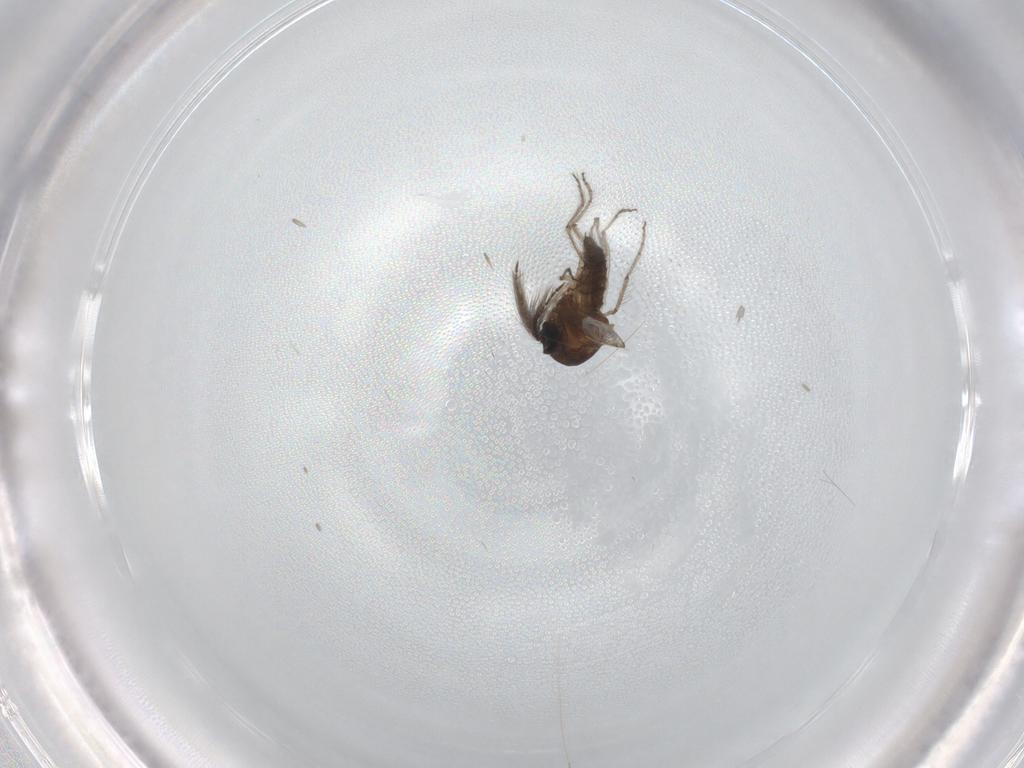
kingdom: Animalia
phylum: Arthropoda
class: Insecta
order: Diptera
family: Ceratopogonidae
